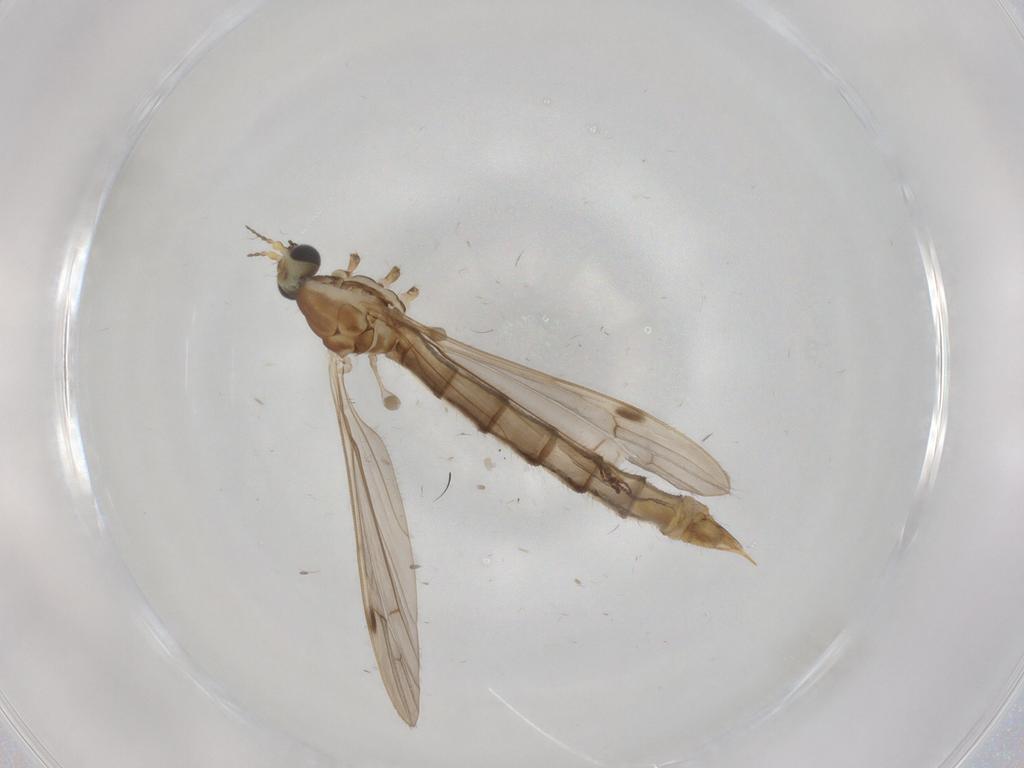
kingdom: Animalia
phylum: Arthropoda
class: Insecta
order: Diptera
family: Psychodidae
